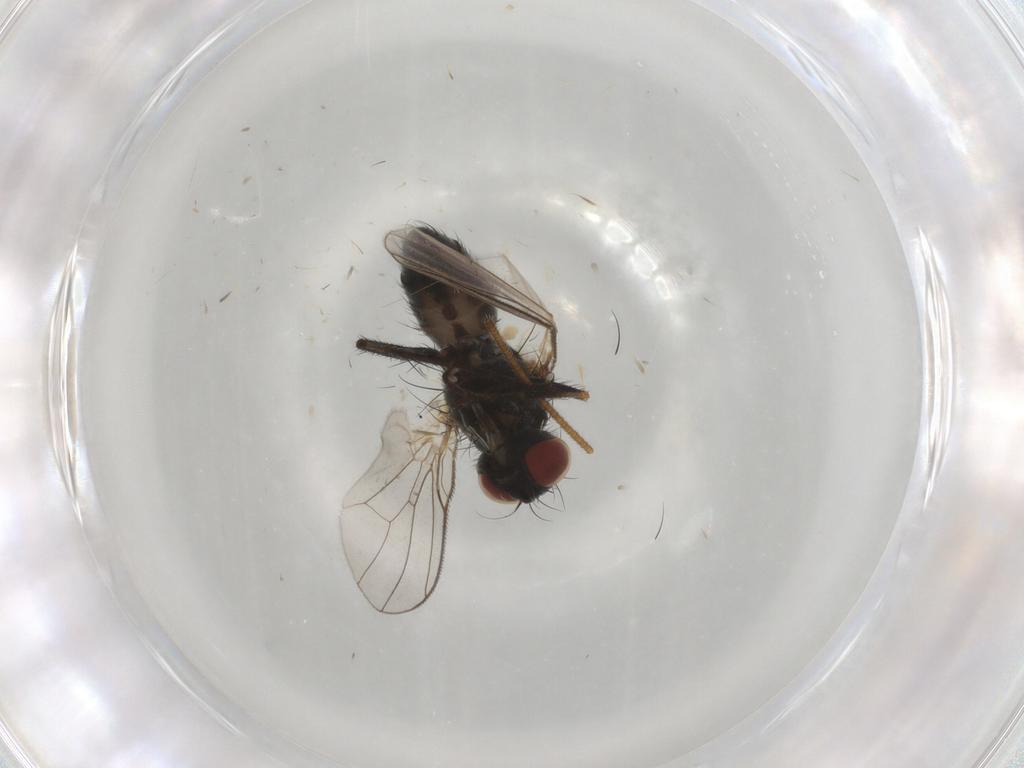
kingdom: Animalia
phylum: Arthropoda
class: Insecta
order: Diptera
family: Muscidae
